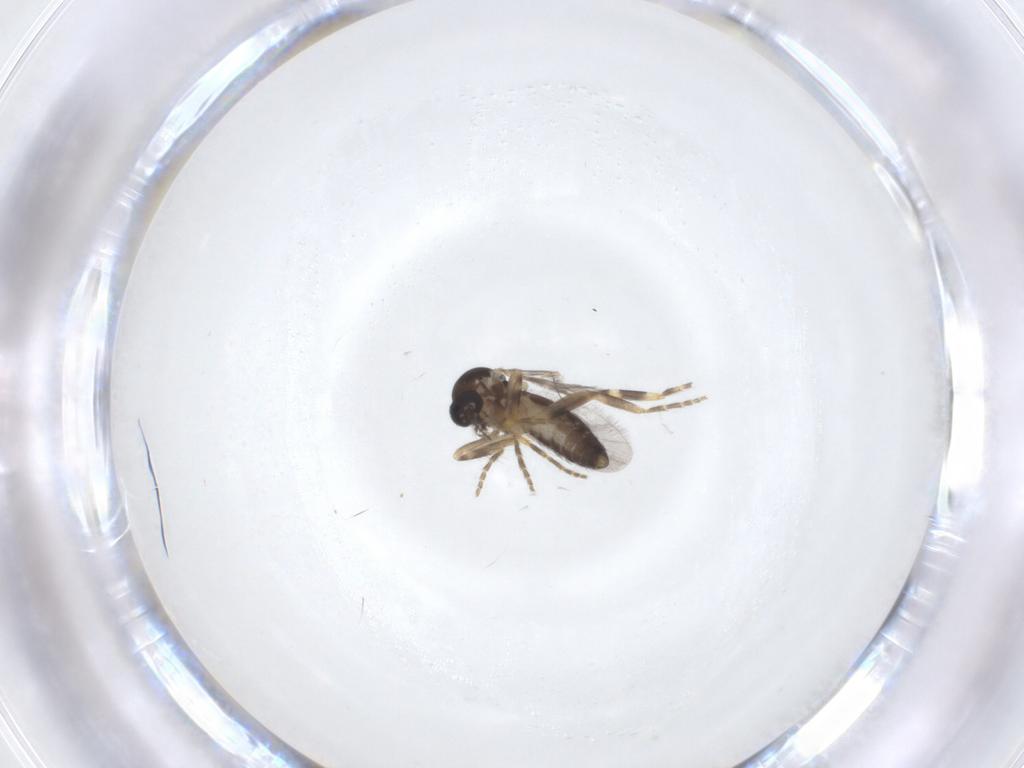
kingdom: Animalia
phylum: Arthropoda
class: Insecta
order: Diptera
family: Ceratopogonidae
